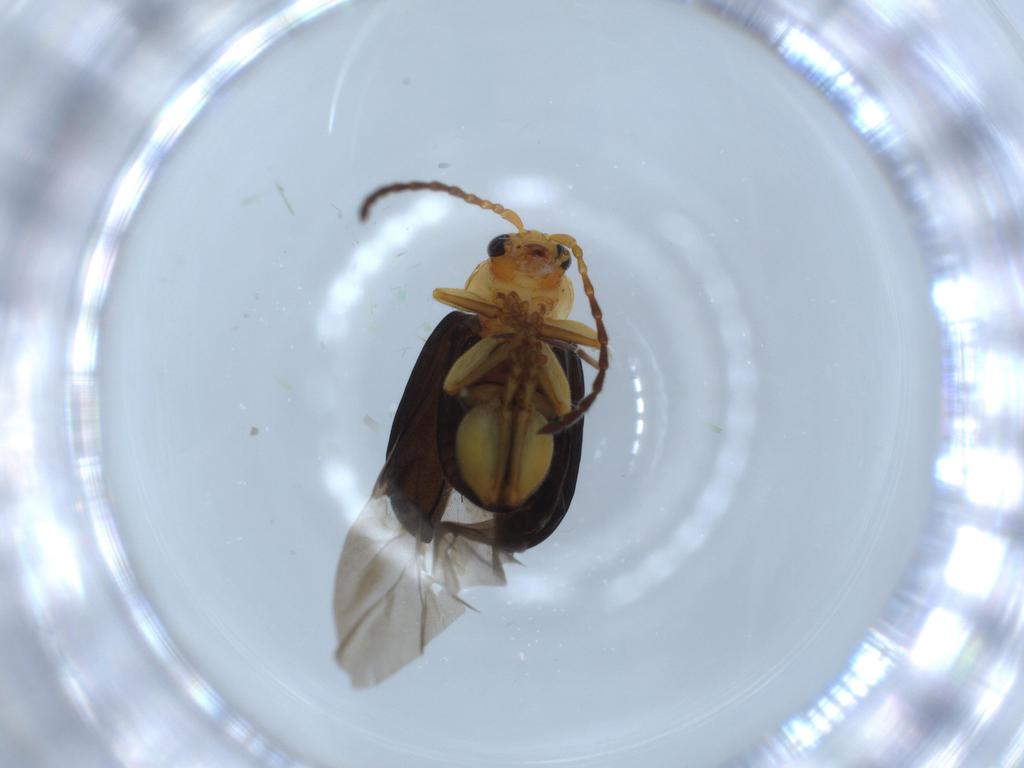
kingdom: Animalia
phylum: Arthropoda
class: Insecta
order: Coleoptera
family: Chrysomelidae
